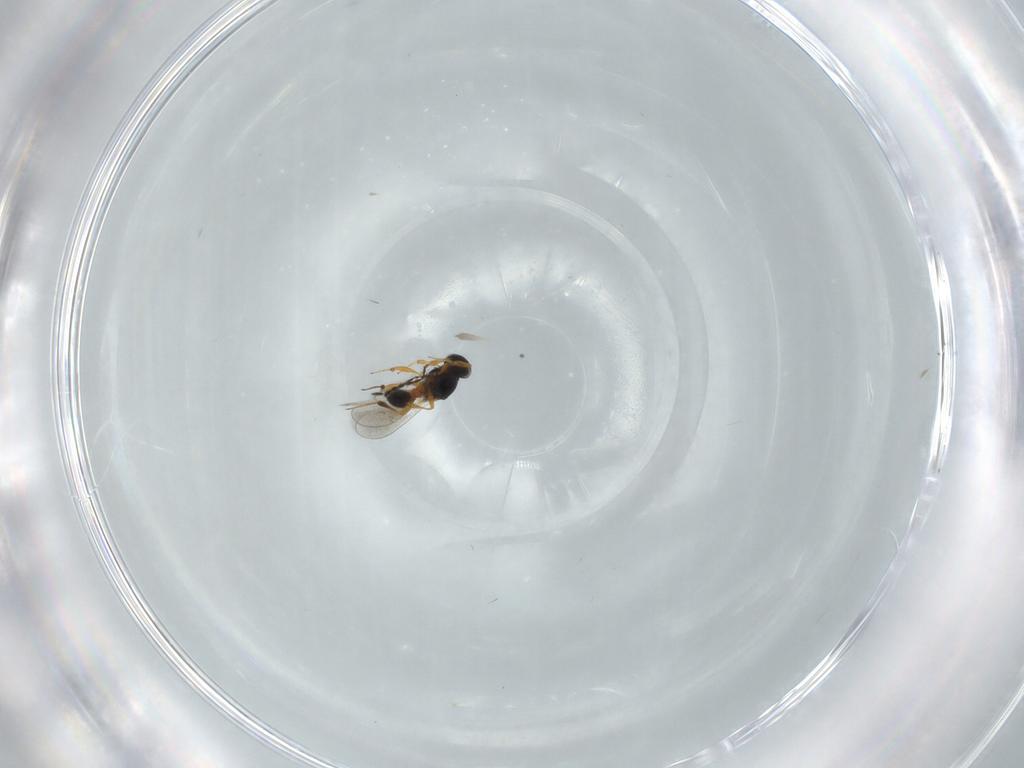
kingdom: Animalia
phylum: Arthropoda
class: Insecta
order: Hymenoptera
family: Platygastridae
